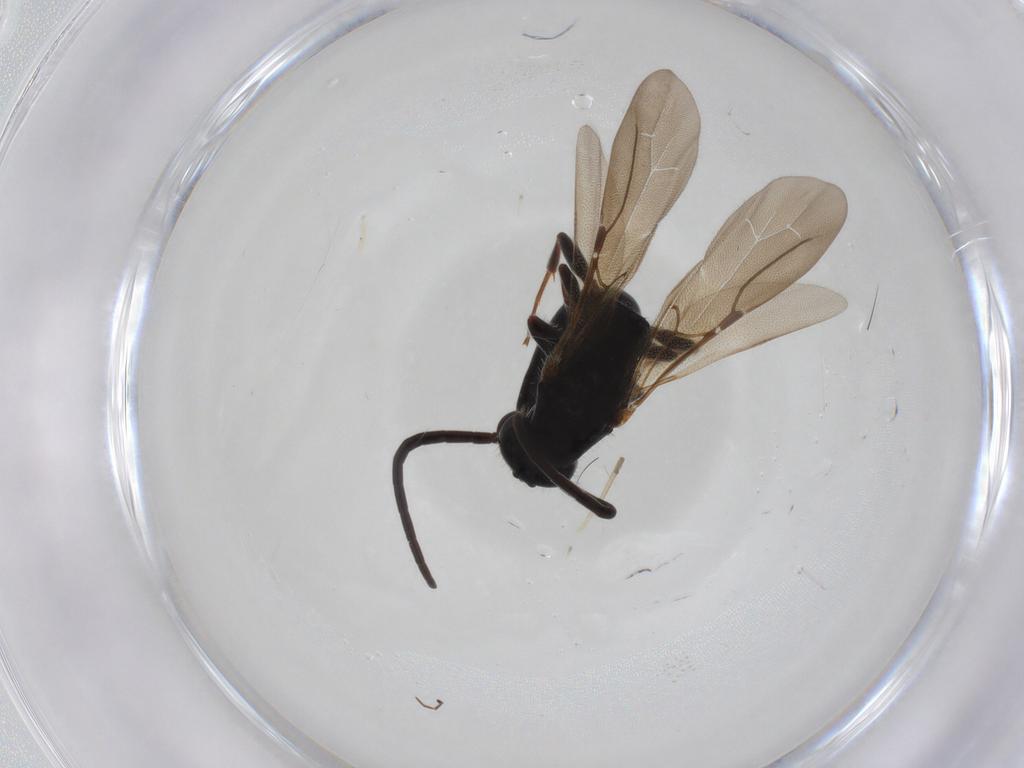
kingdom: Animalia
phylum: Arthropoda
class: Insecta
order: Hymenoptera
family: Bethylidae
